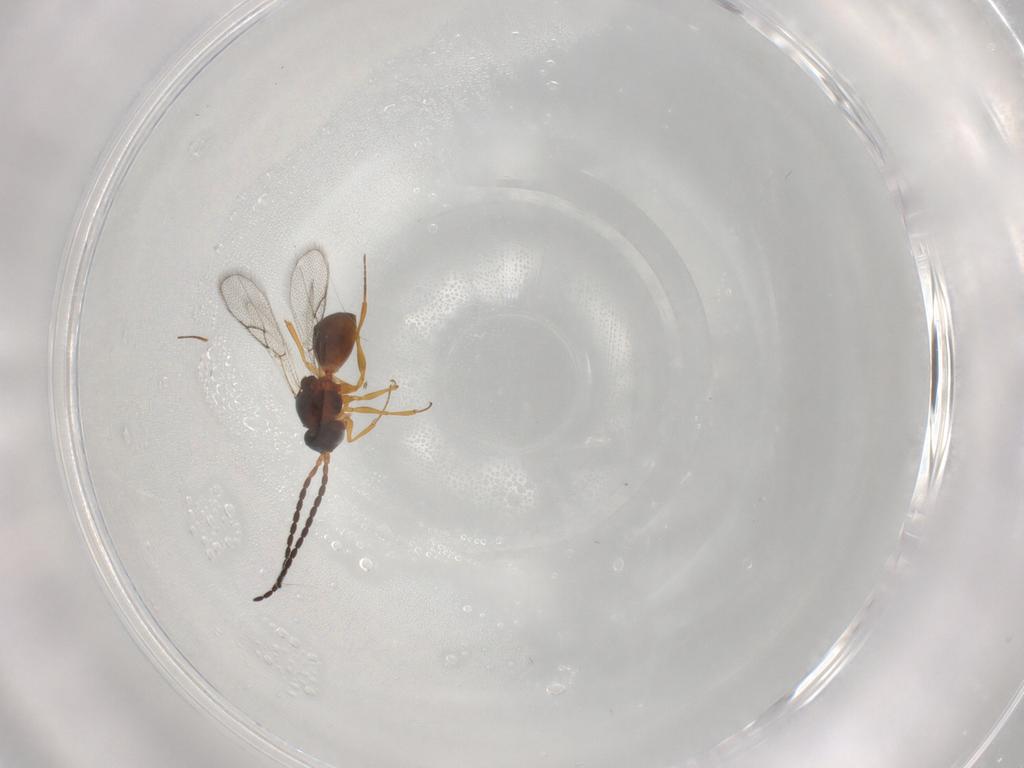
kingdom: Animalia
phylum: Arthropoda
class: Insecta
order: Hymenoptera
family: Figitidae
